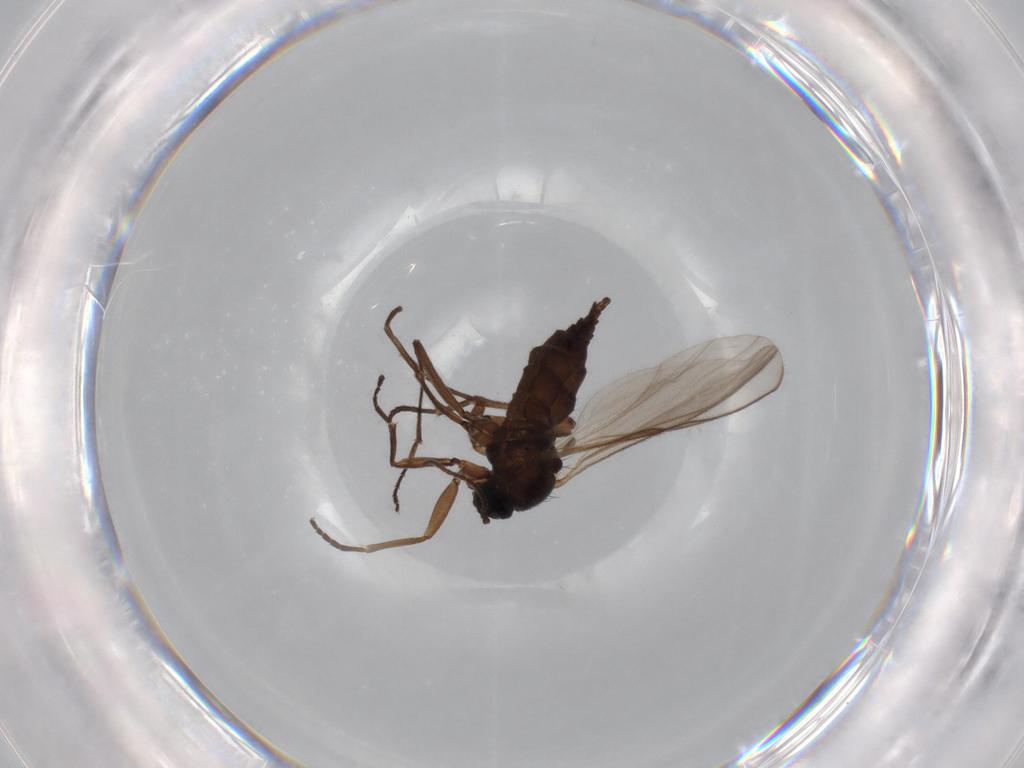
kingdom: Animalia
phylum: Arthropoda
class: Insecta
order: Diptera
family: Sciaridae
